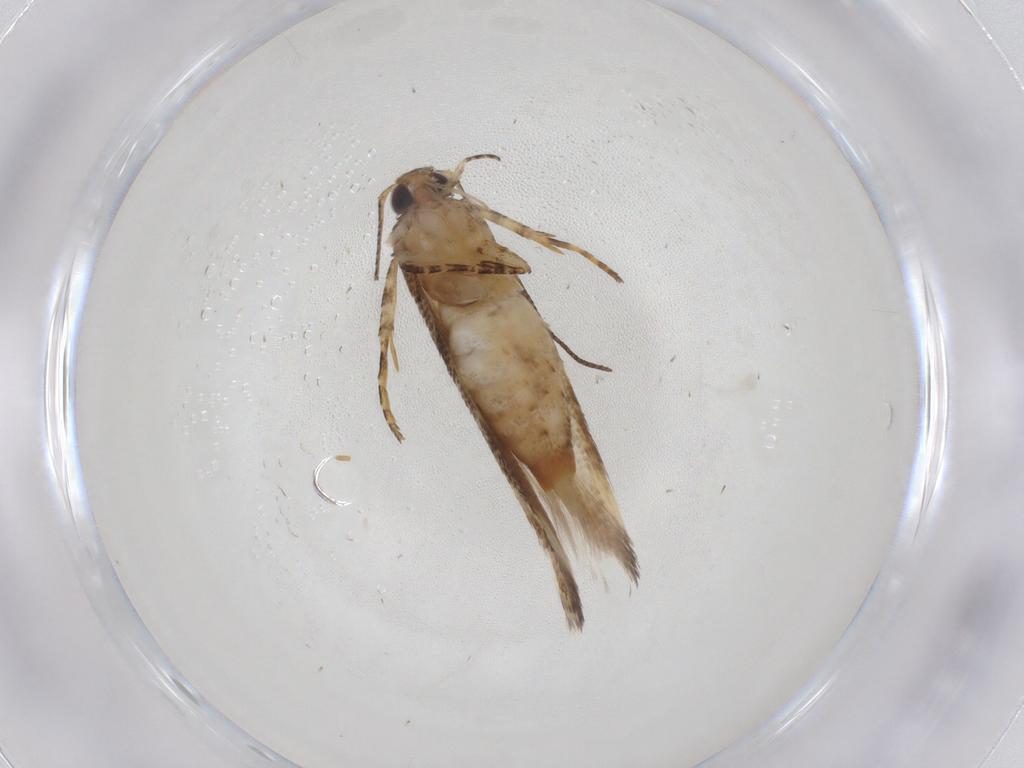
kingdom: Animalia
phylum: Arthropoda
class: Insecta
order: Lepidoptera
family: Gelechiidae
